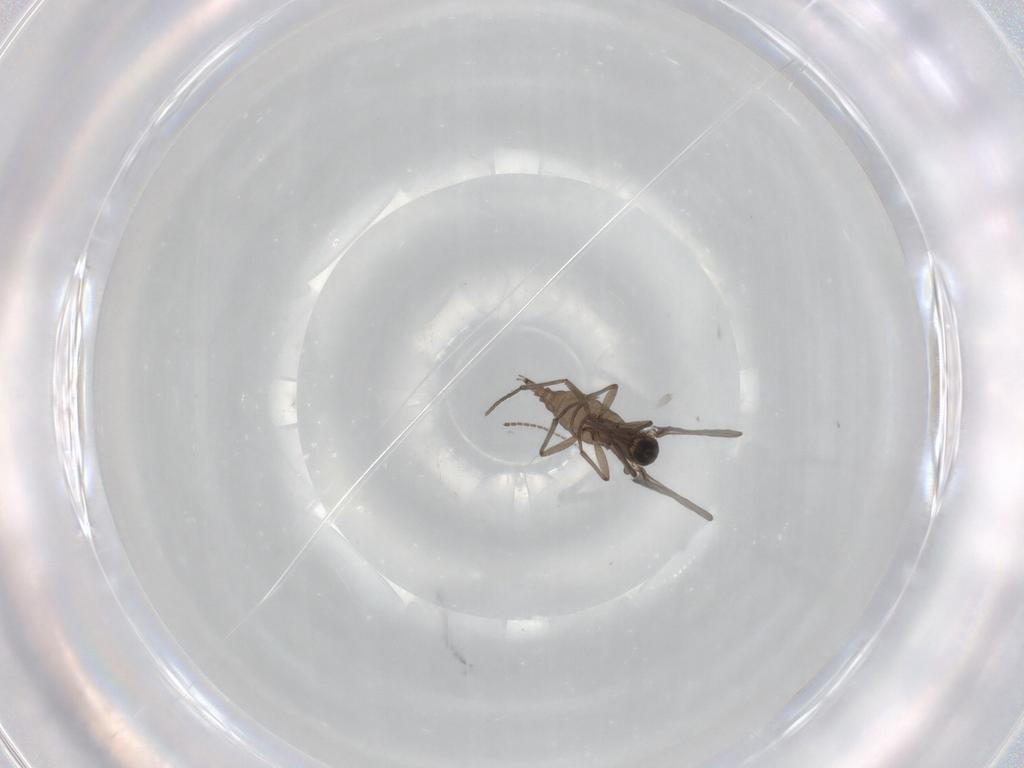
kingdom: Animalia
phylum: Arthropoda
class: Insecta
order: Diptera
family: Sciaridae
